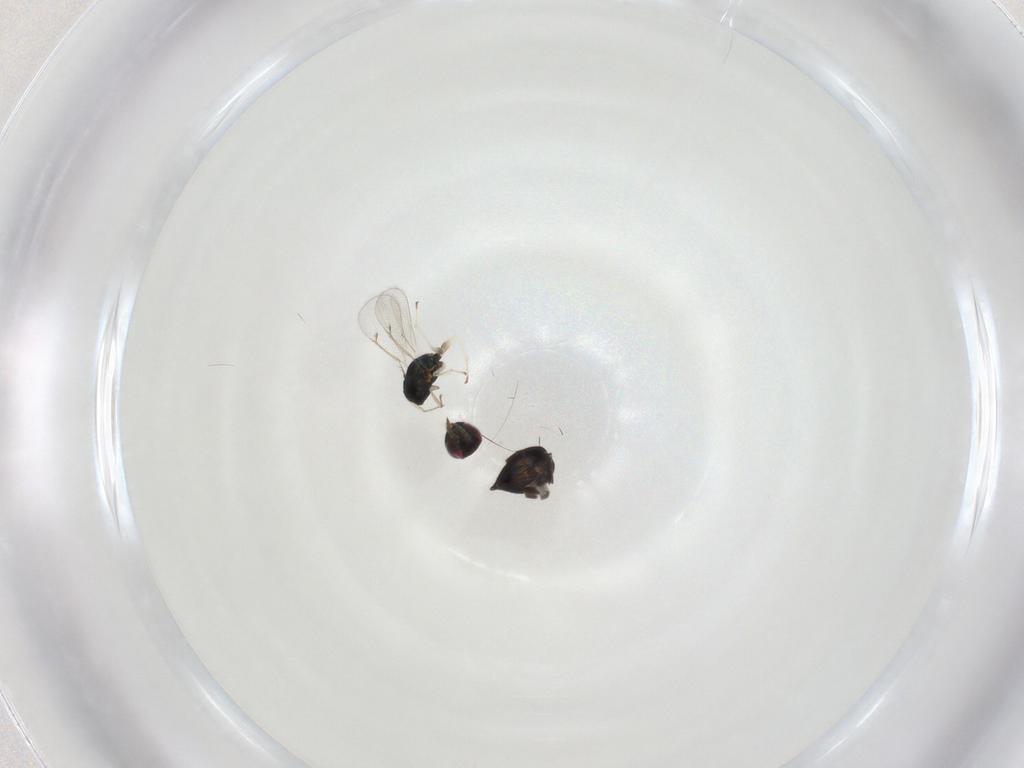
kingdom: Animalia
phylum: Arthropoda
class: Insecta
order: Hymenoptera
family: Eulophidae
